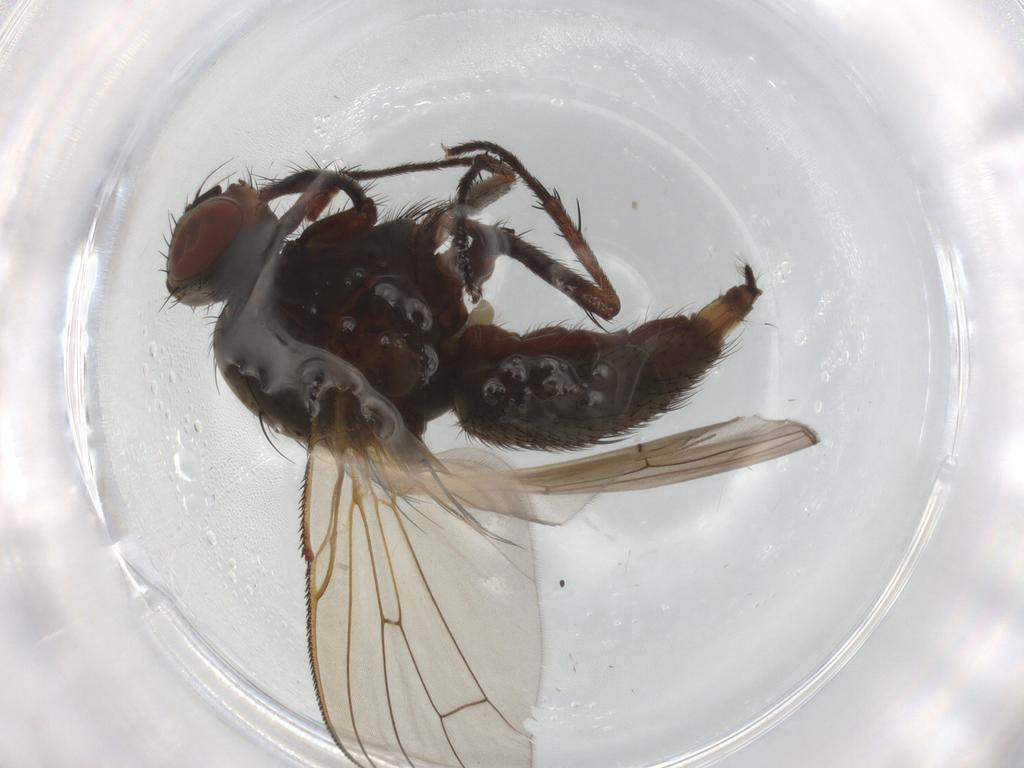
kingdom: Animalia
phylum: Arthropoda
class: Insecta
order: Diptera
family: Anthomyiidae
